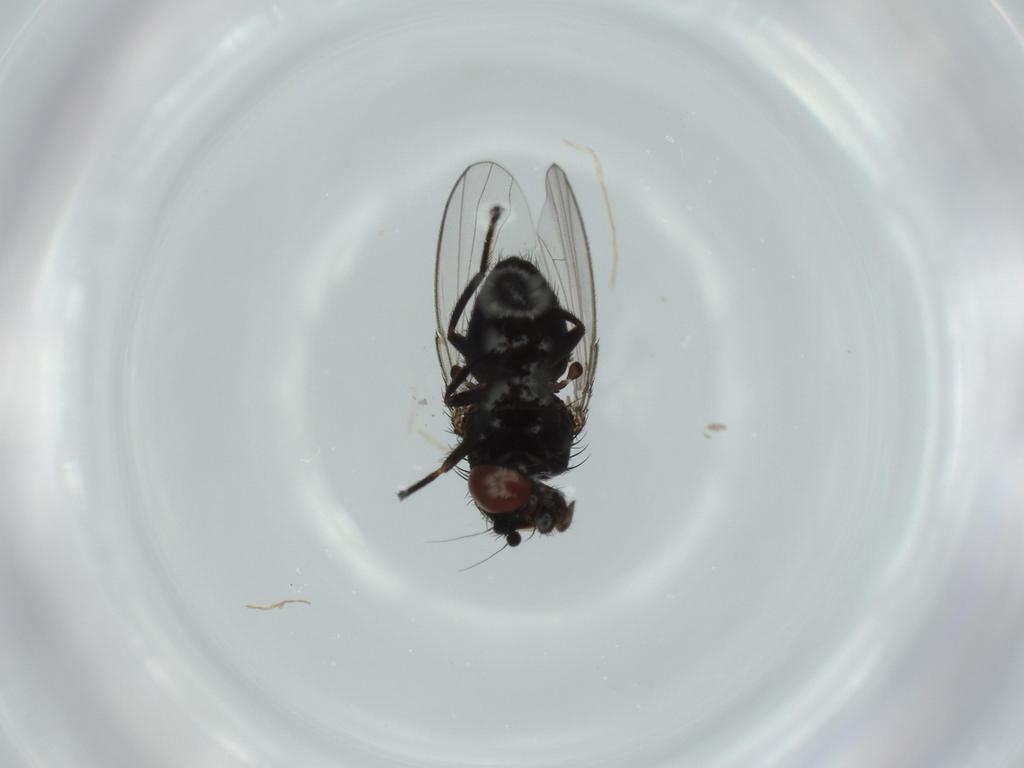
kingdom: Animalia
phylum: Arthropoda
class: Insecta
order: Diptera
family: Milichiidae
